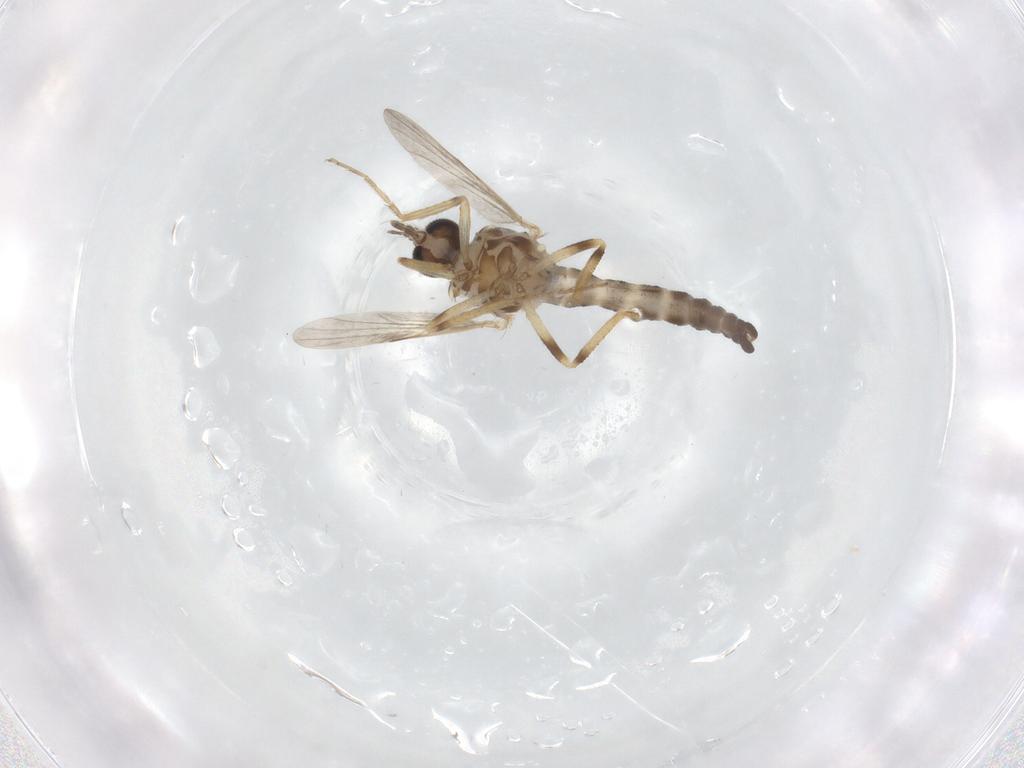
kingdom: Animalia
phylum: Arthropoda
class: Insecta
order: Diptera
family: Ceratopogonidae
